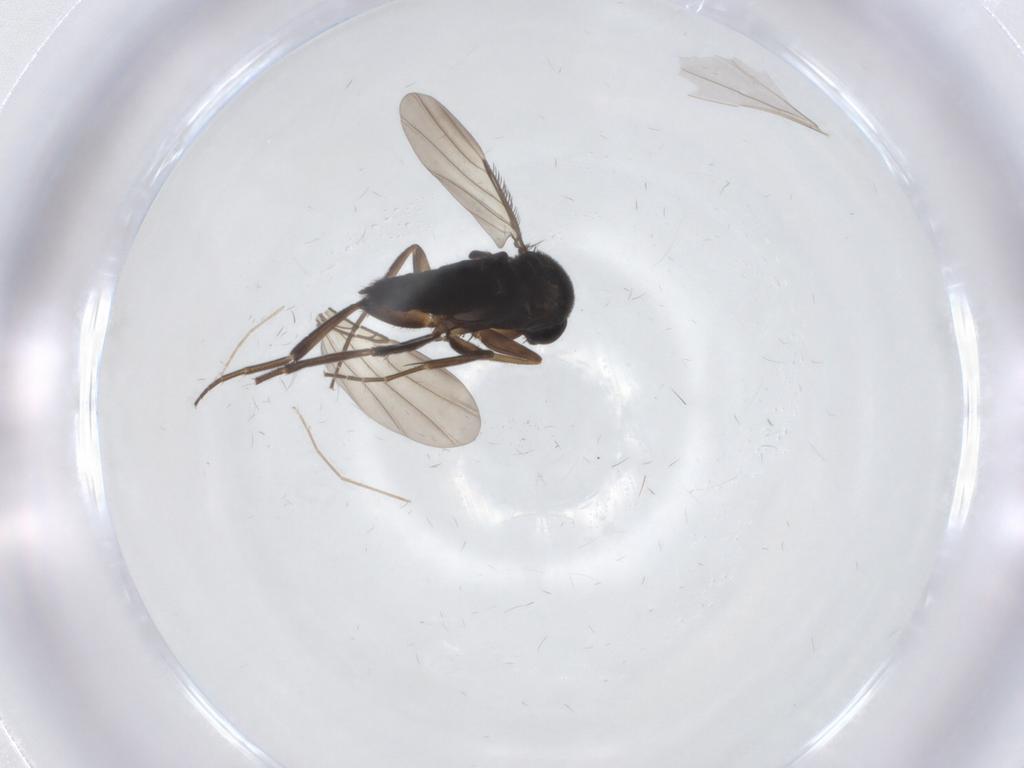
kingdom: Animalia
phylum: Arthropoda
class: Insecta
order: Diptera
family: Phoridae
